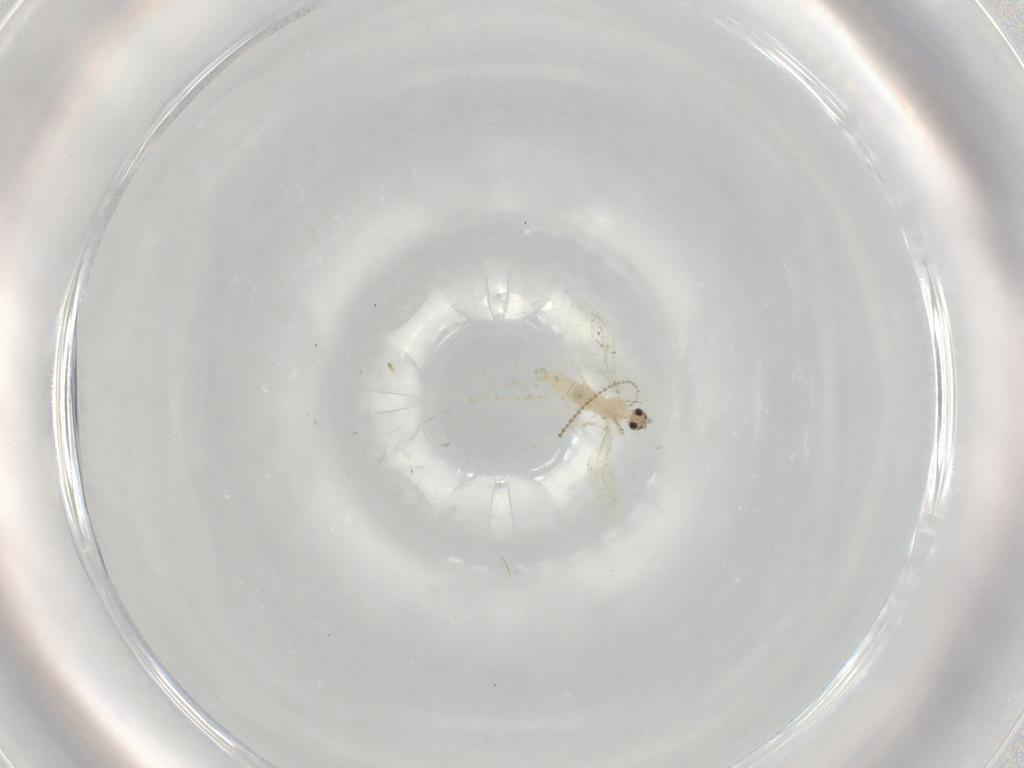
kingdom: Animalia
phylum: Arthropoda
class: Insecta
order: Diptera
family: Cecidomyiidae
